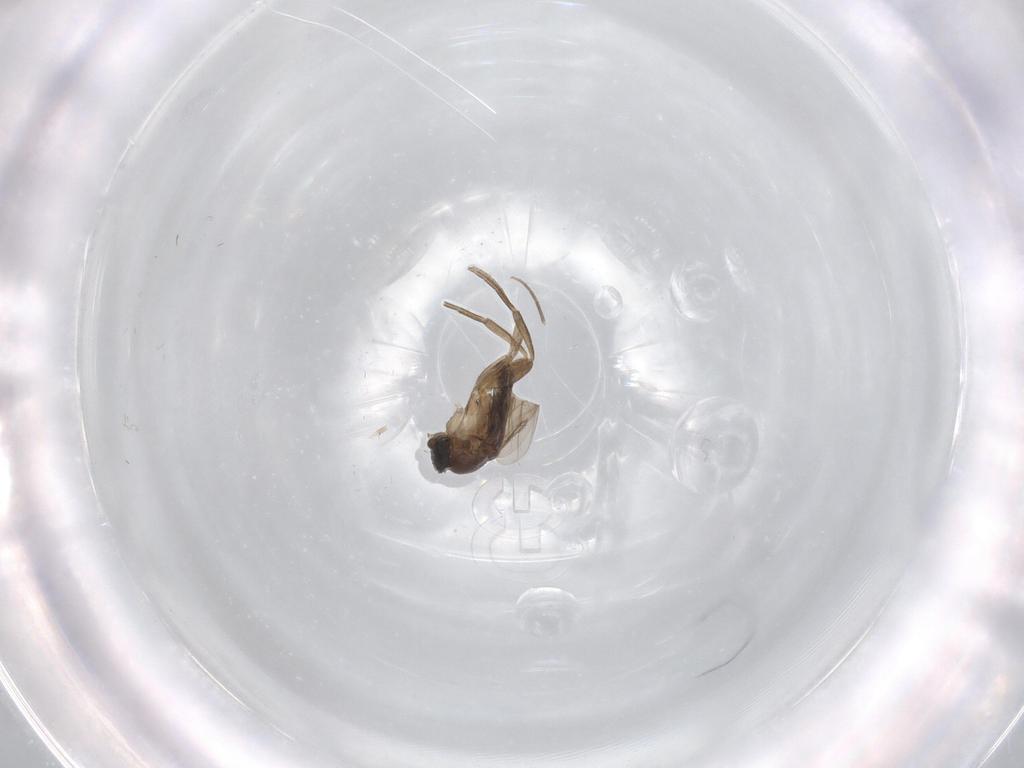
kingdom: Animalia
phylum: Arthropoda
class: Insecta
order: Diptera
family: Phoridae
